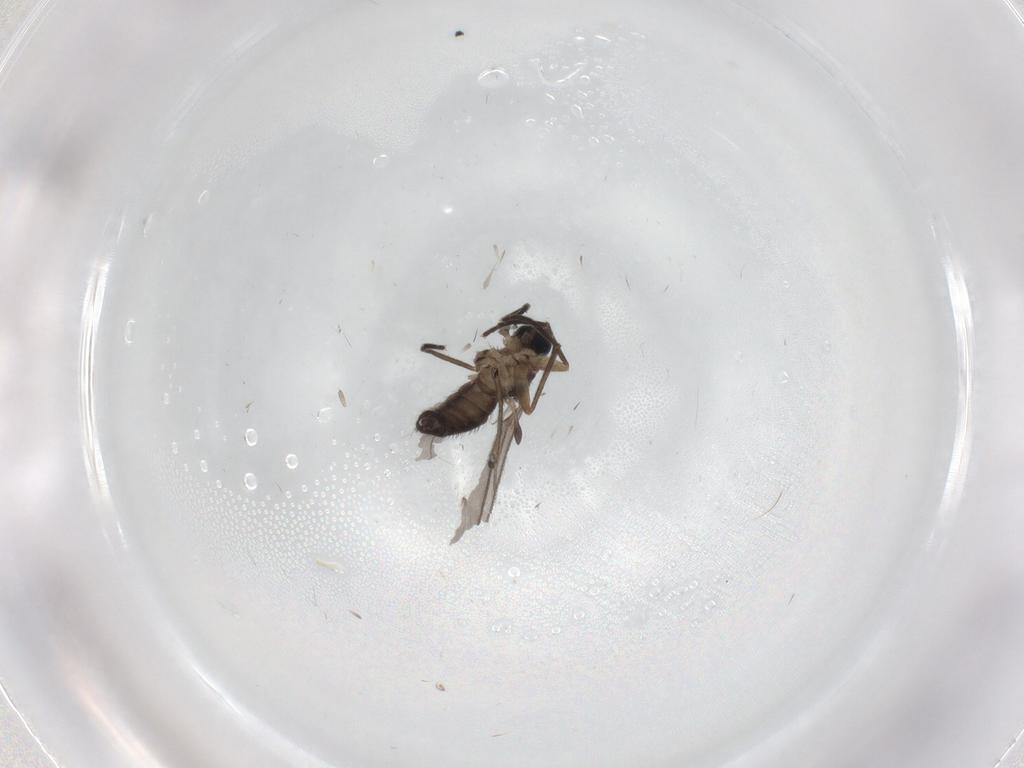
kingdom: Animalia
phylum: Arthropoda
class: Insecta
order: Diptera
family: Sciaridae
